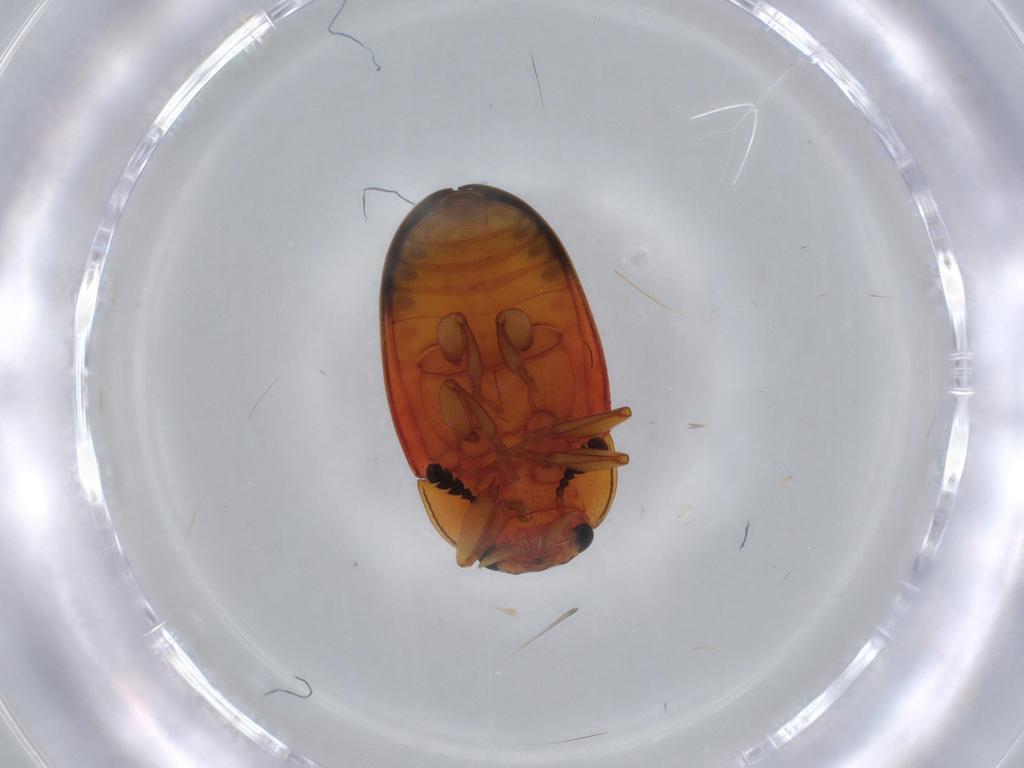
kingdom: Animalia
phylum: Arthropoda
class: Insecta
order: Coleoptera
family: Erotylidae
